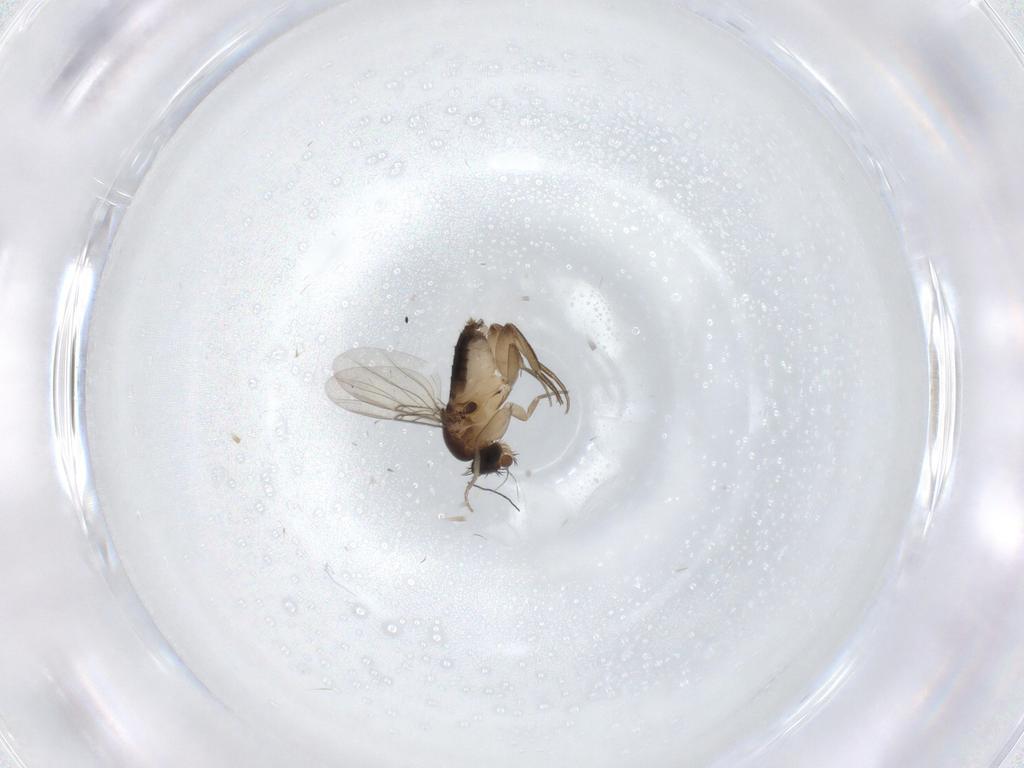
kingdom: Animalia
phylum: Arthropoda
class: Insecta
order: Diptera
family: Phoridae
